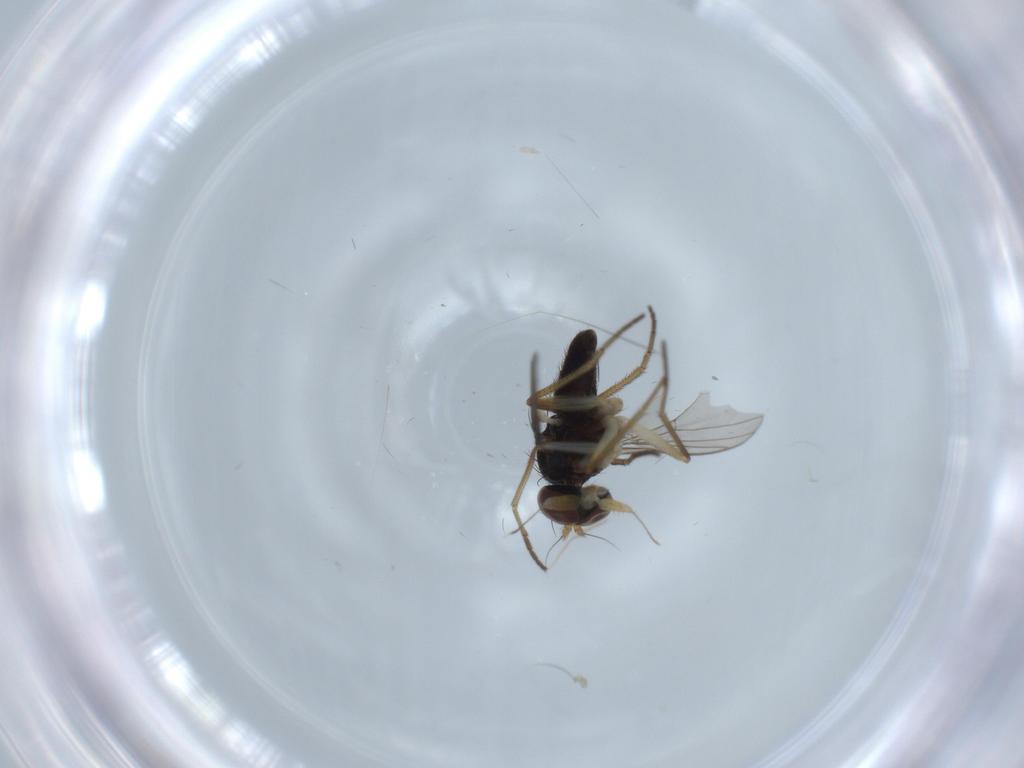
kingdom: Animalia
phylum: Arthropoda
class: Insecta
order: Diptera
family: Dolichopodidae
